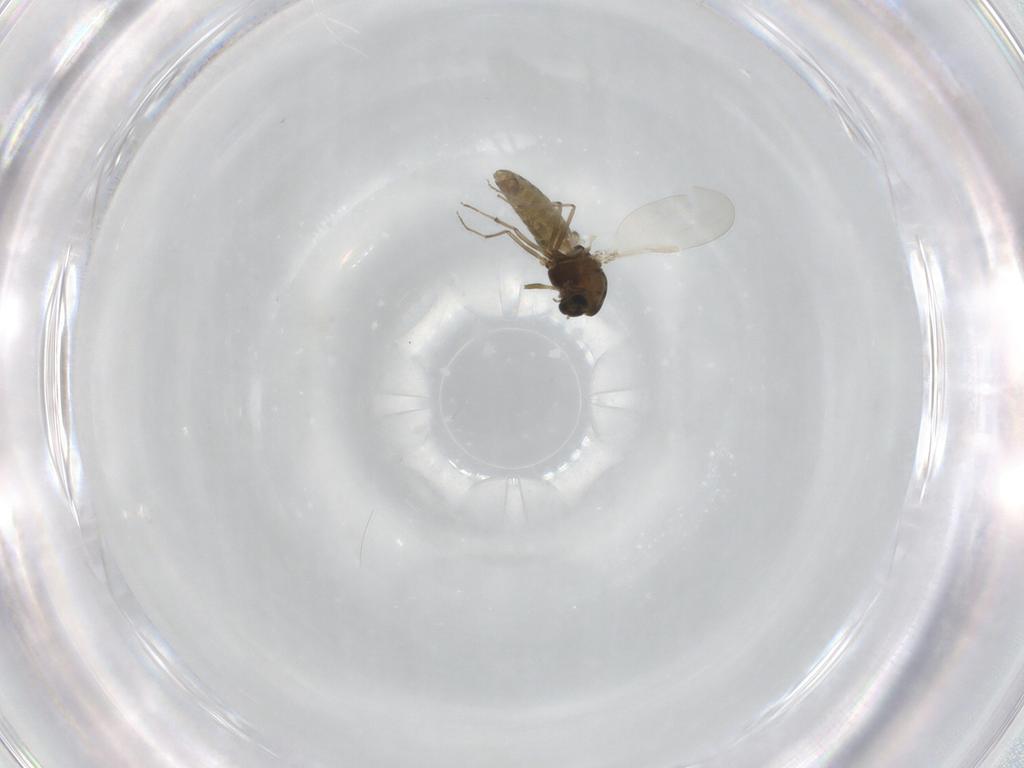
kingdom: Animalia
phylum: Arthropoda
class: Insecta
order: Diptera
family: Chironomidae
